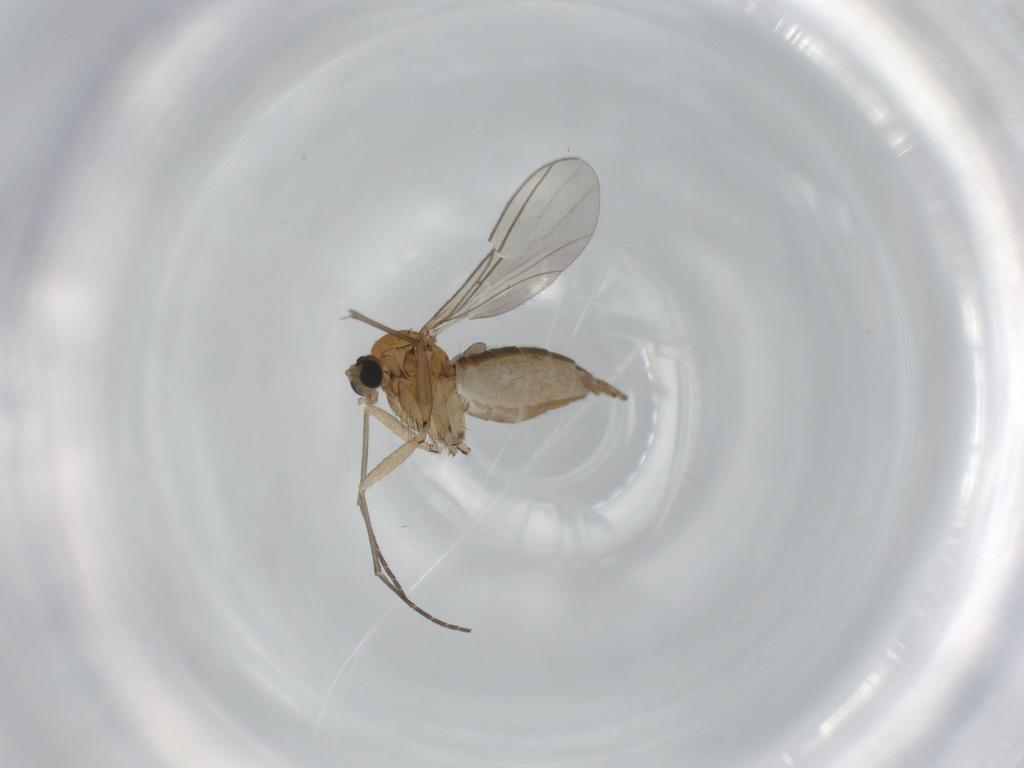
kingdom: Animalia
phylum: Arthropoda
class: Insecta
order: Diptera
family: Sciaridae
